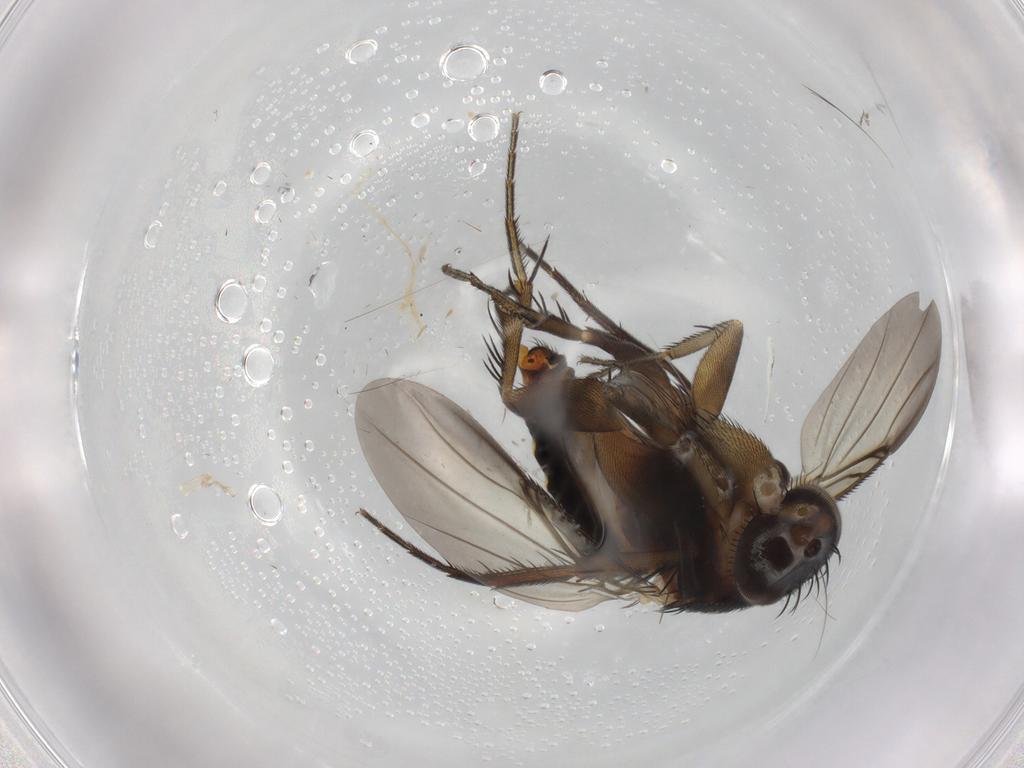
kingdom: Animalia
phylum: Arthropoda
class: Insecta
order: Diptera
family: Phoridae
